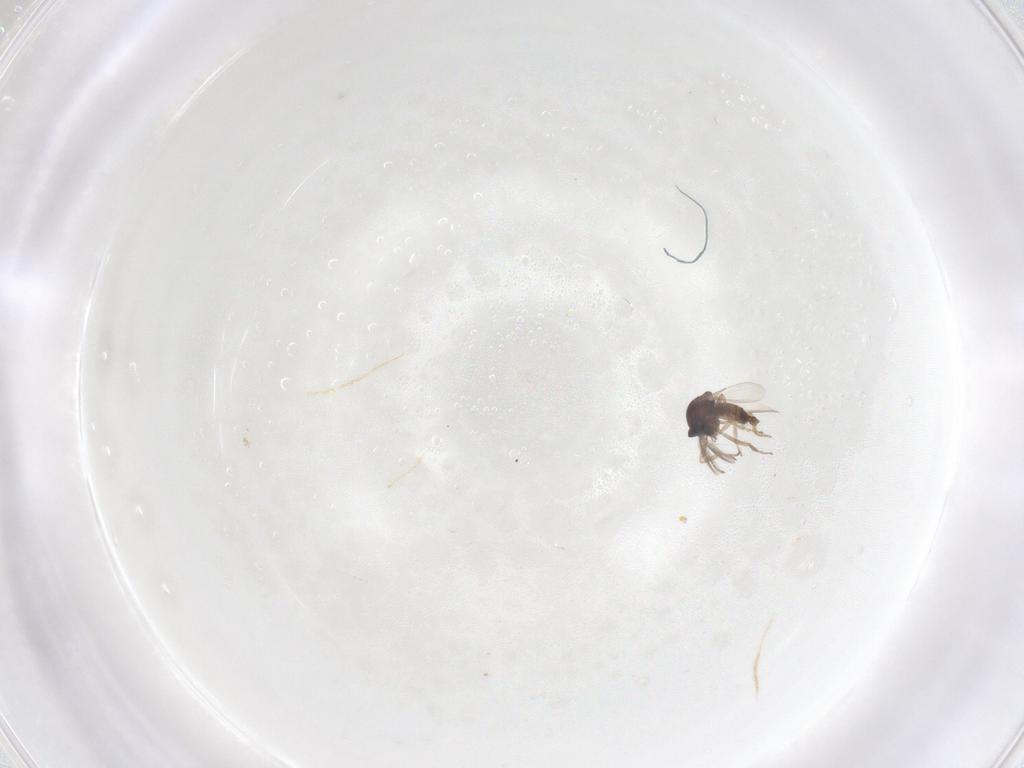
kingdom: Animalia
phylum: Arthropoda
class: Insecta
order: Diptera
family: Ceratopogonidae
